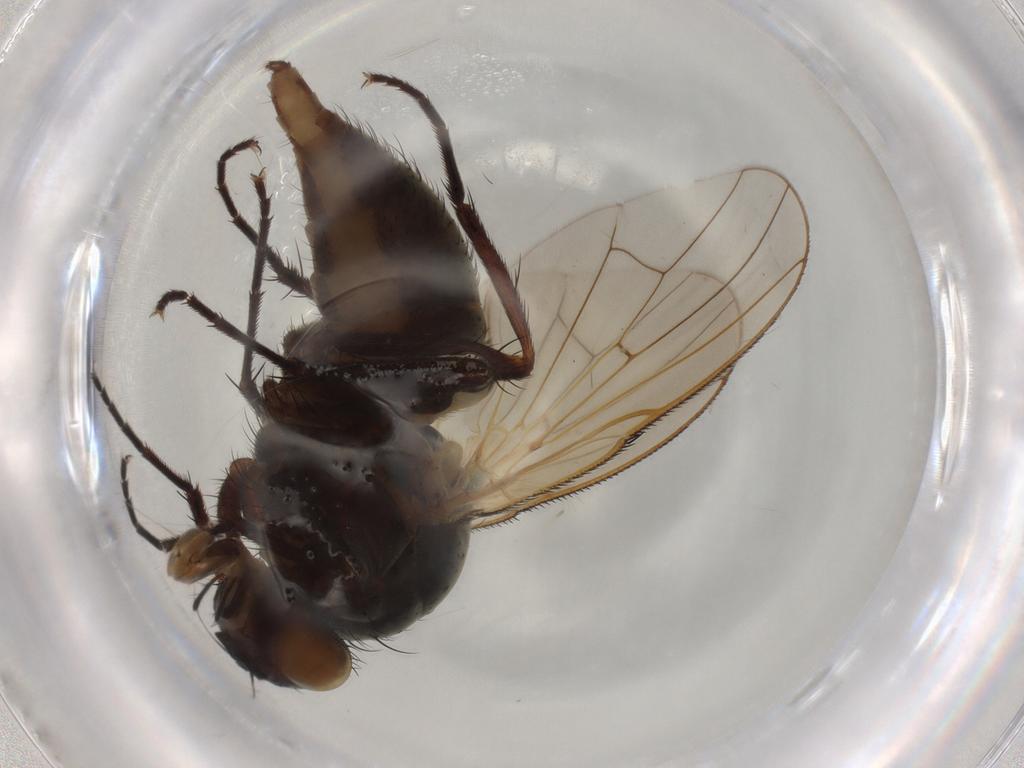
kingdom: Animalia
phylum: Arthropoda
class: Insecta
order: Diptera
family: Anthomyiidae
